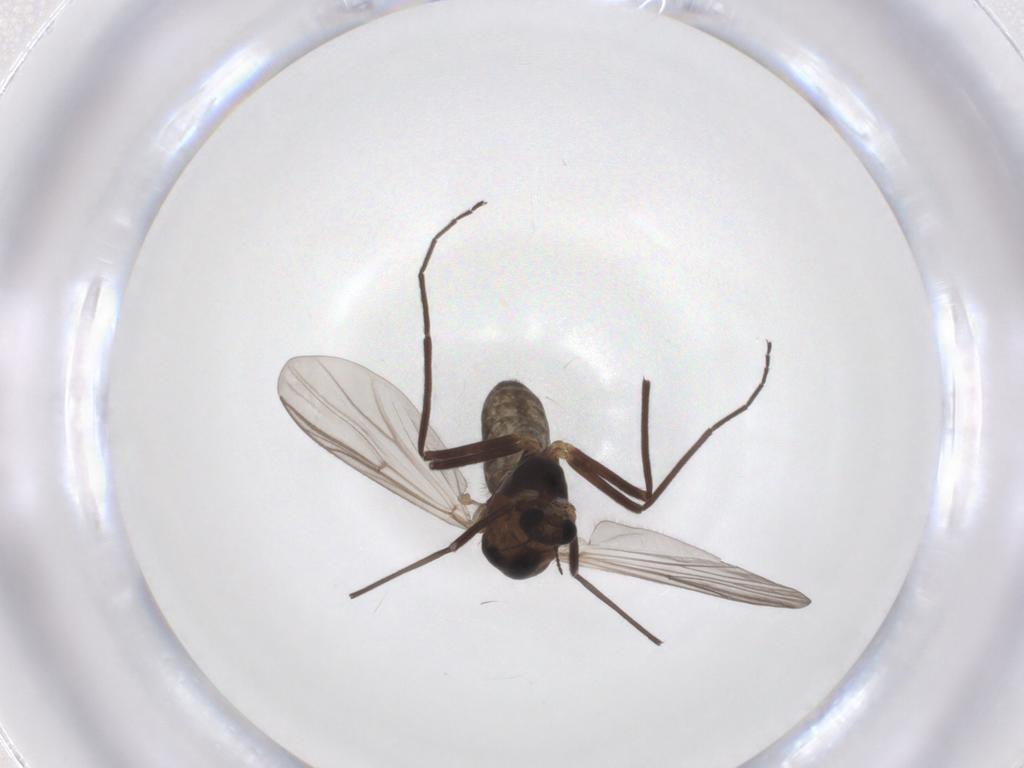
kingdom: Animalia
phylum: Arthropoda
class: Insecta
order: Diptera
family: Chironomidae
